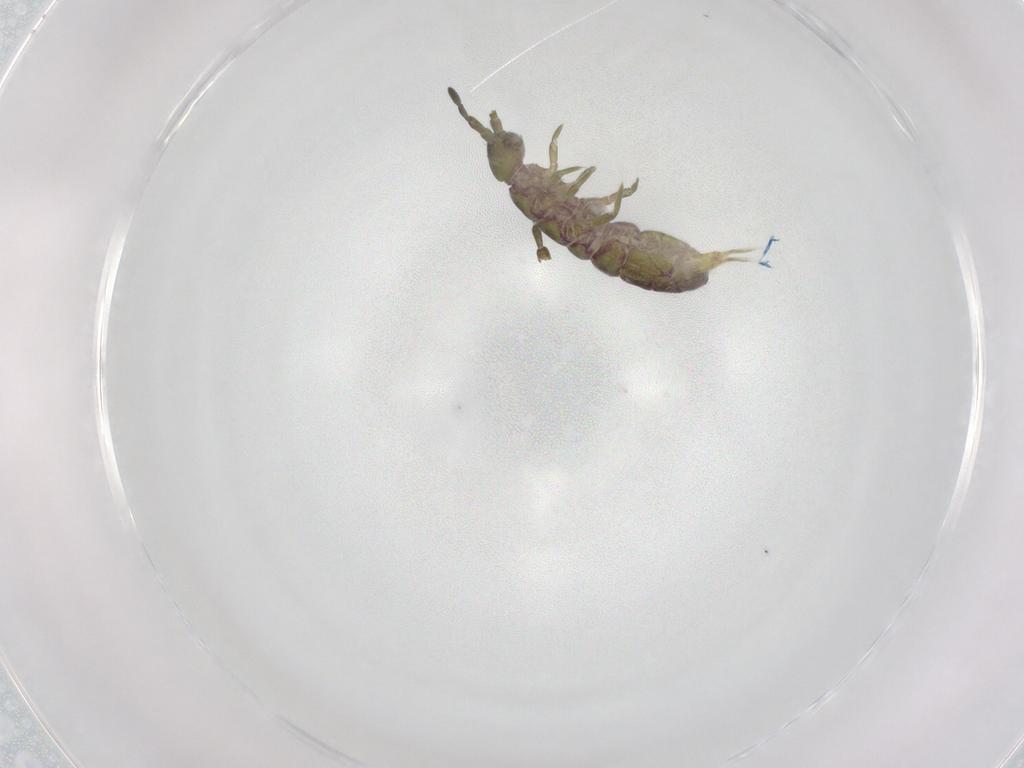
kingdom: Animalia
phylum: Arthropoda
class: Collembola
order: Entomobryomorpha
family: Isotomidae
